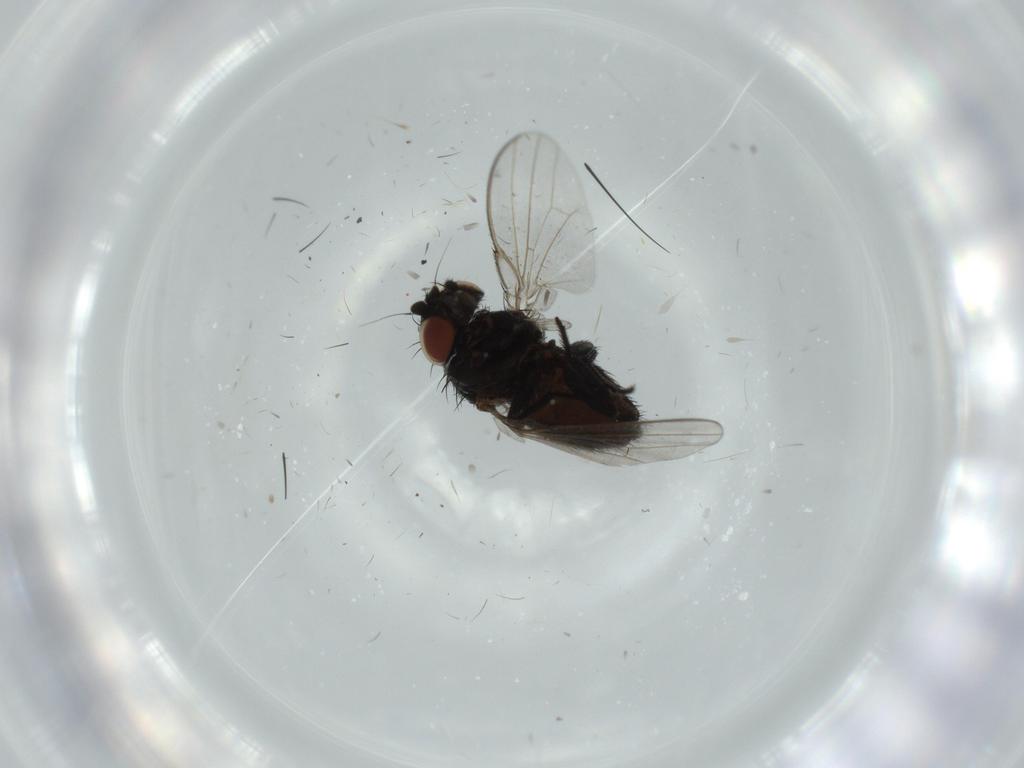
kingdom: Animalia
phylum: Arthropoda
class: Insecta
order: Diptera
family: Milichiidae
